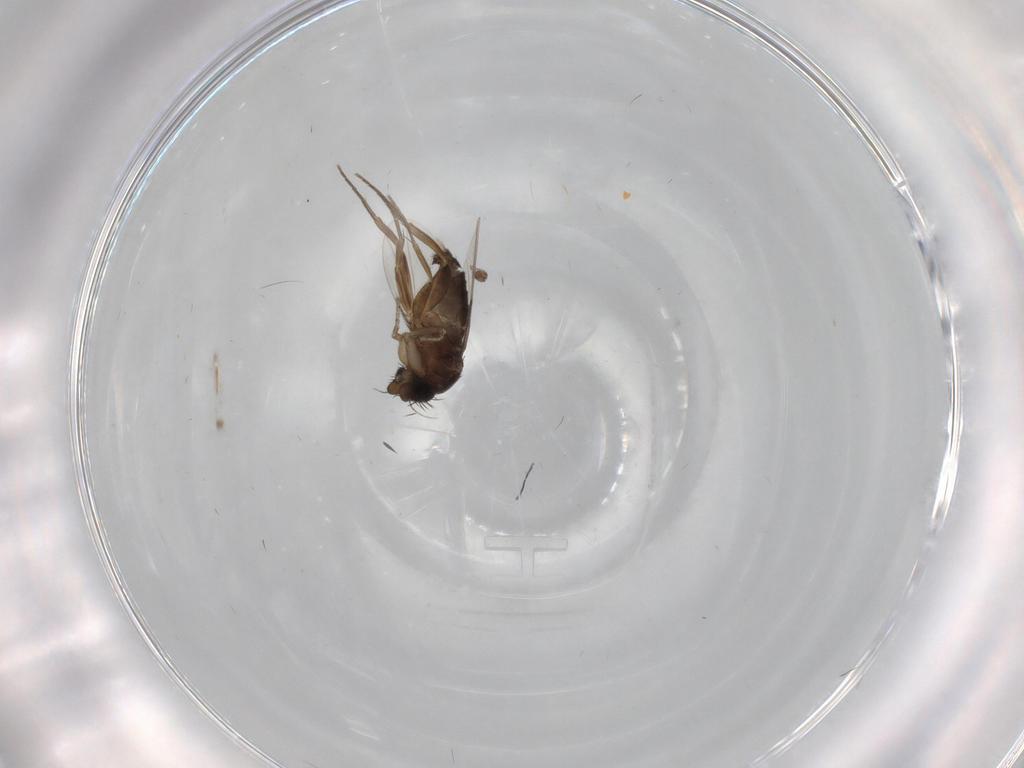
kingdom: Animalia
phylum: Arthropoda
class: Insecta
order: Diptera
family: Phoridae
